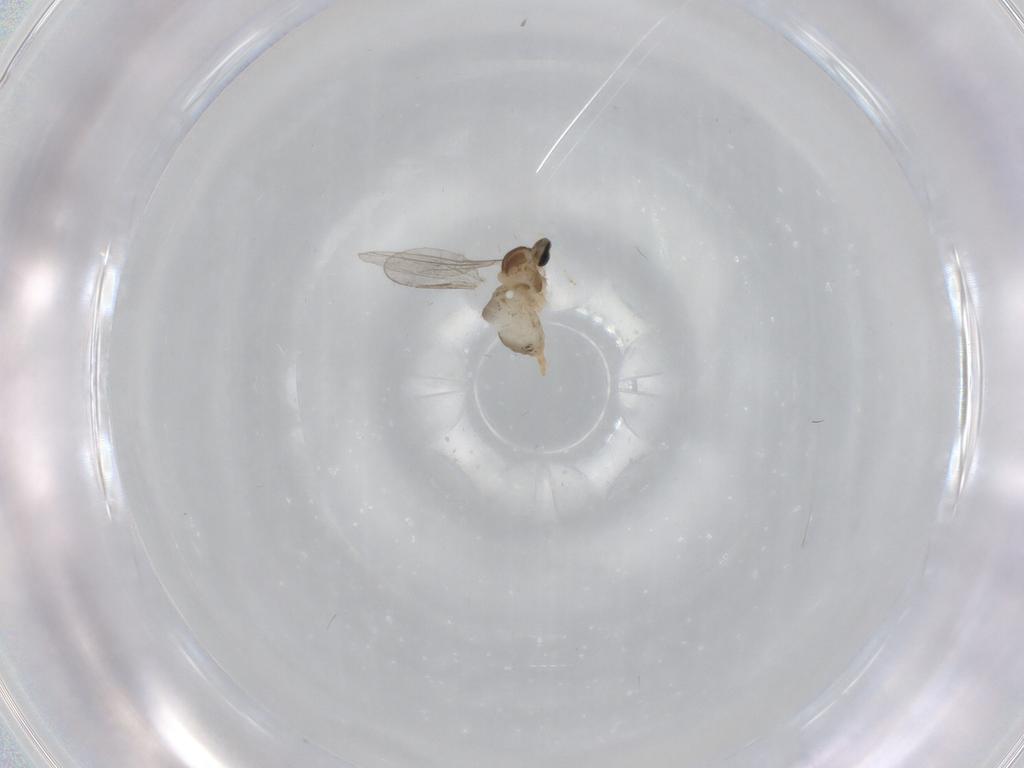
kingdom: Animalia
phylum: Arthropoda
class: Insecta
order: Diptera
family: Cecidomyiidae
